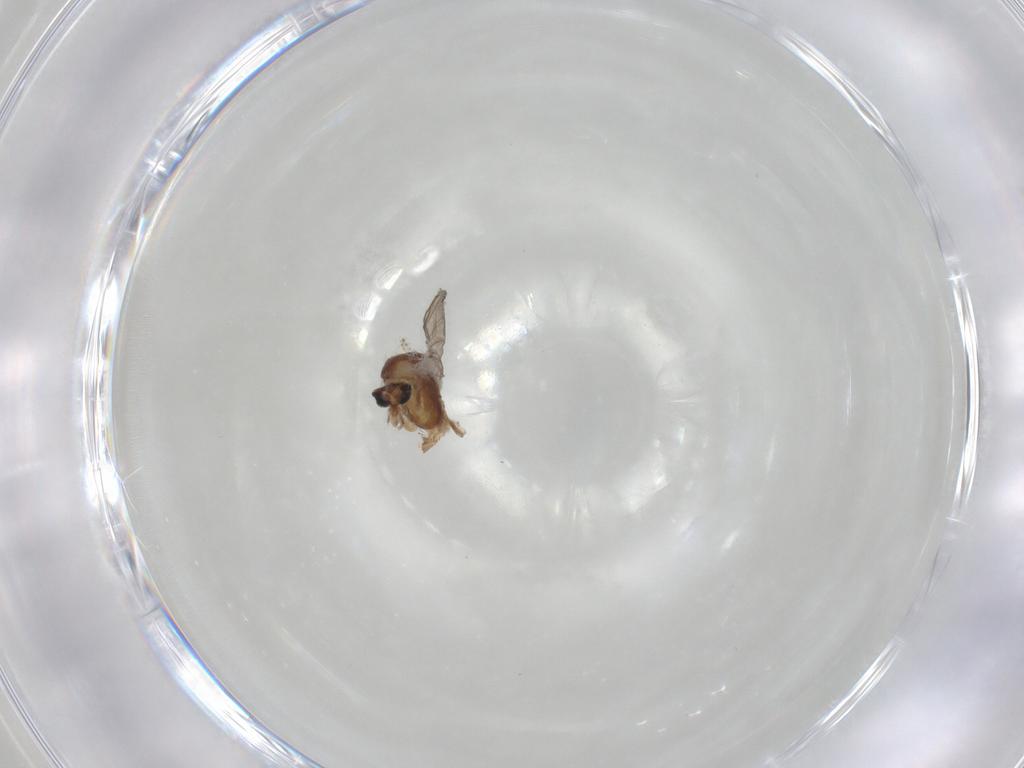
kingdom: Animalia
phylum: Arthropoda
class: Insecta
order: Diptera
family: Chironomidae
